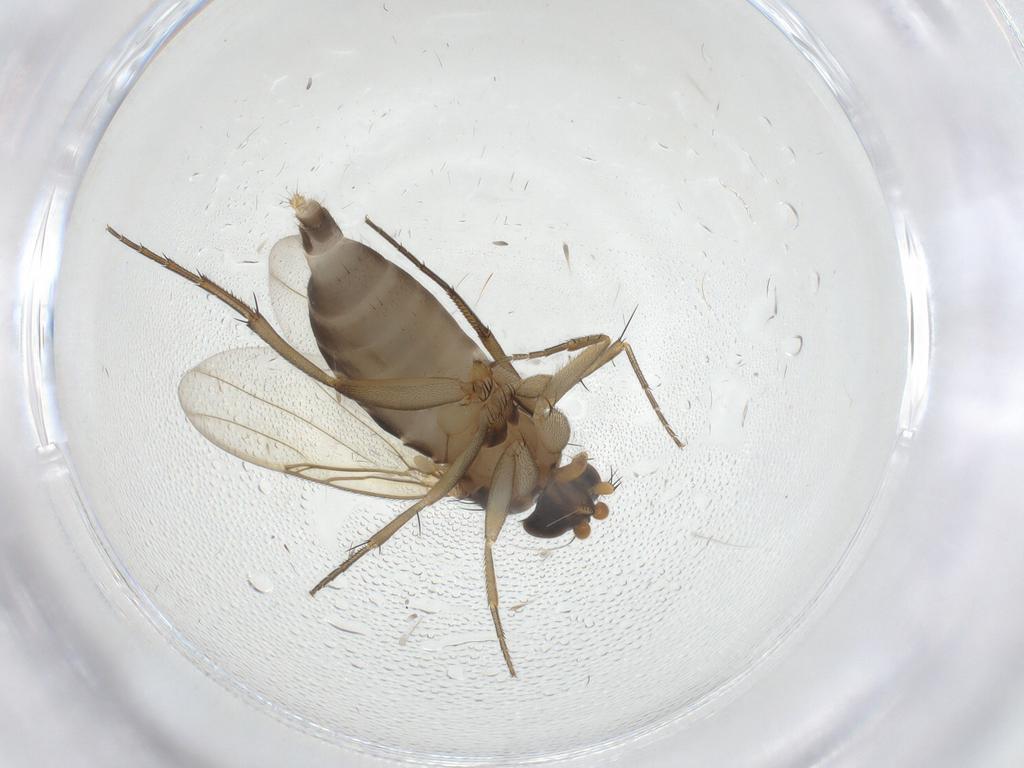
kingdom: Animalia
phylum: Arthropoda
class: Insecta
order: Diptera
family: Phoridae
